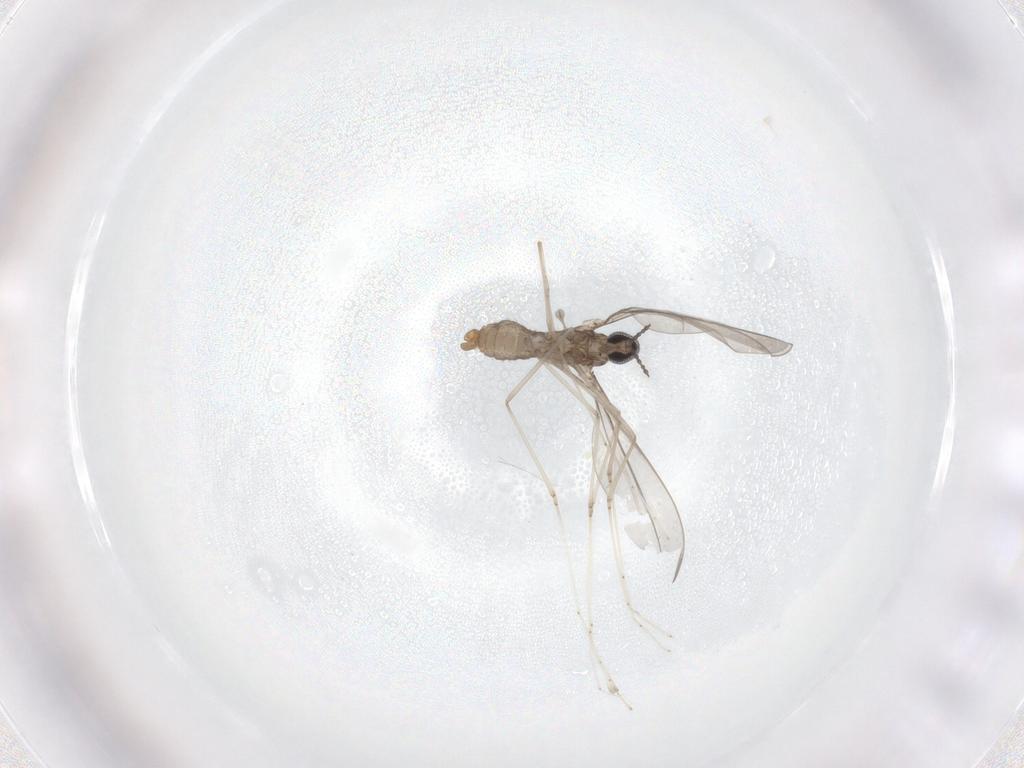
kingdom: Animalia
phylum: Arthropoda
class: Insecta
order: Diptera
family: Cecidomyiidae
